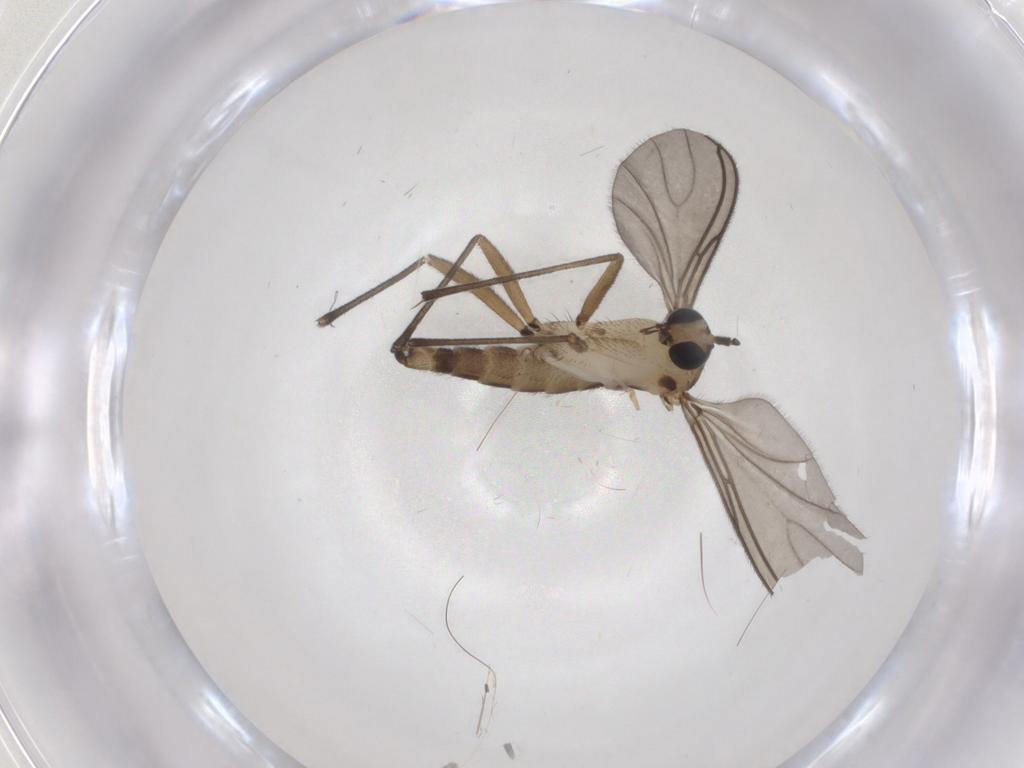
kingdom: Animalia
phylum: Arthropoda
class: Insecta
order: Diptera
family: Sciaridae
